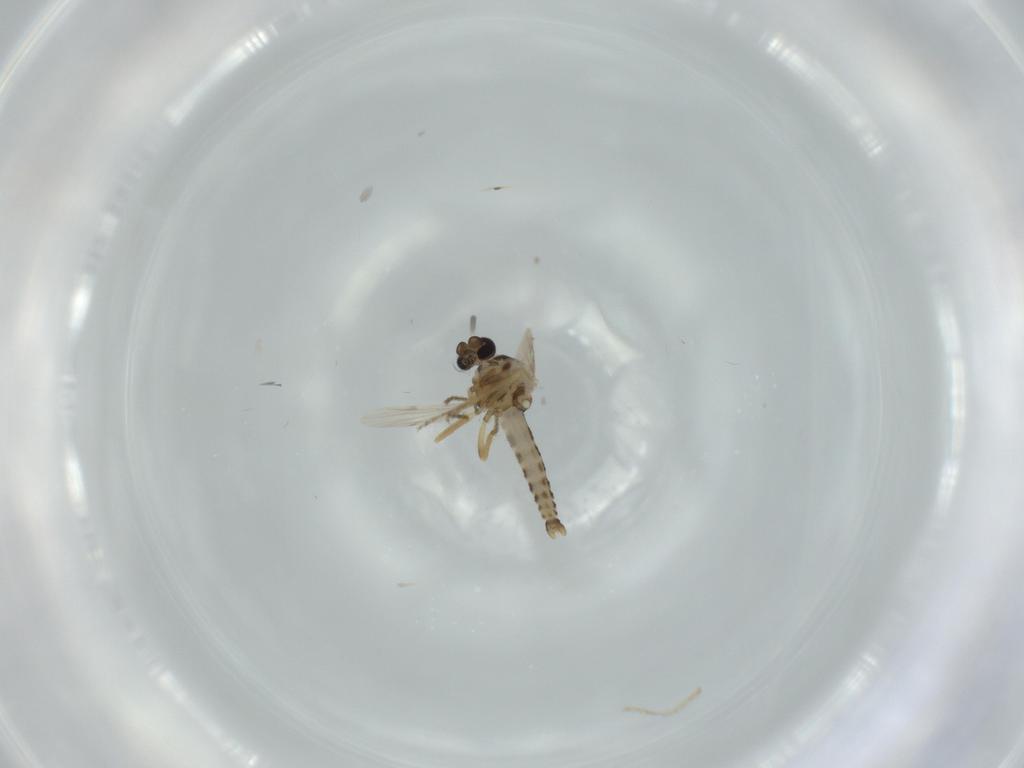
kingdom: Animalia
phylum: Arthropoda
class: Insecta
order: Diptera
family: Ceratopogonidae
